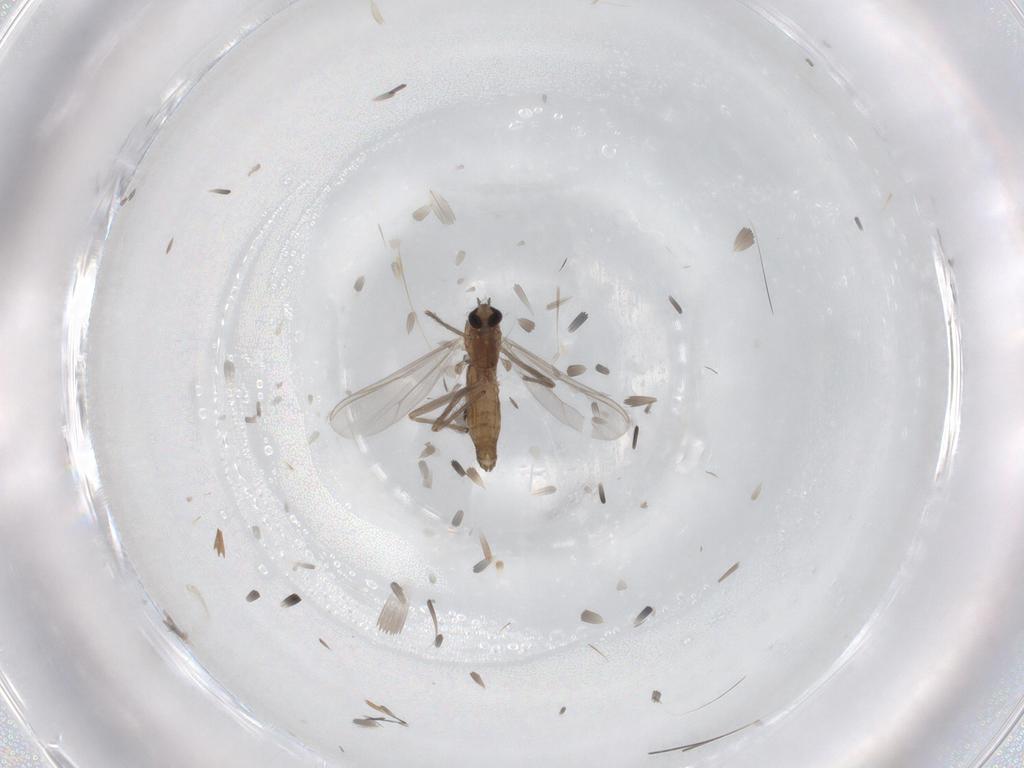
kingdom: Animalia
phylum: Arthropoda
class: Insecta
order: Diptera
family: Chironomidae
